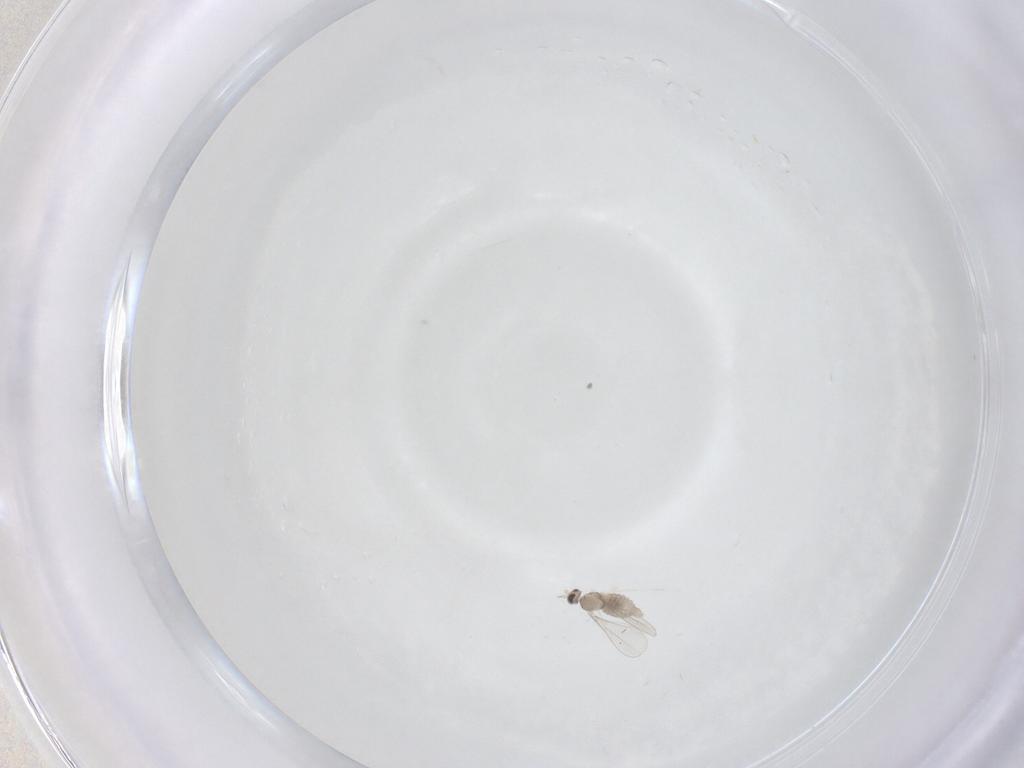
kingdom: Animalia
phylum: Arthropoda
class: Insecta
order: Diptera
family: Cecidomyiidae
